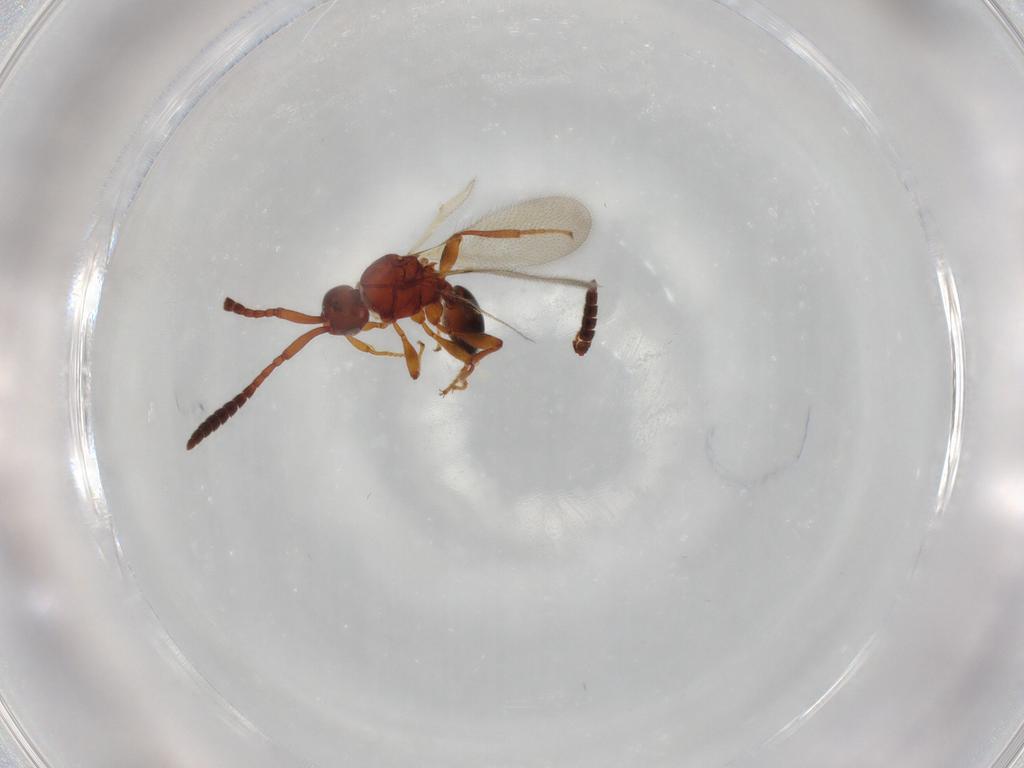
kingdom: Animalia
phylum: Arthropoda
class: Insecta
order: Hymenoptera
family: Diapriidae
